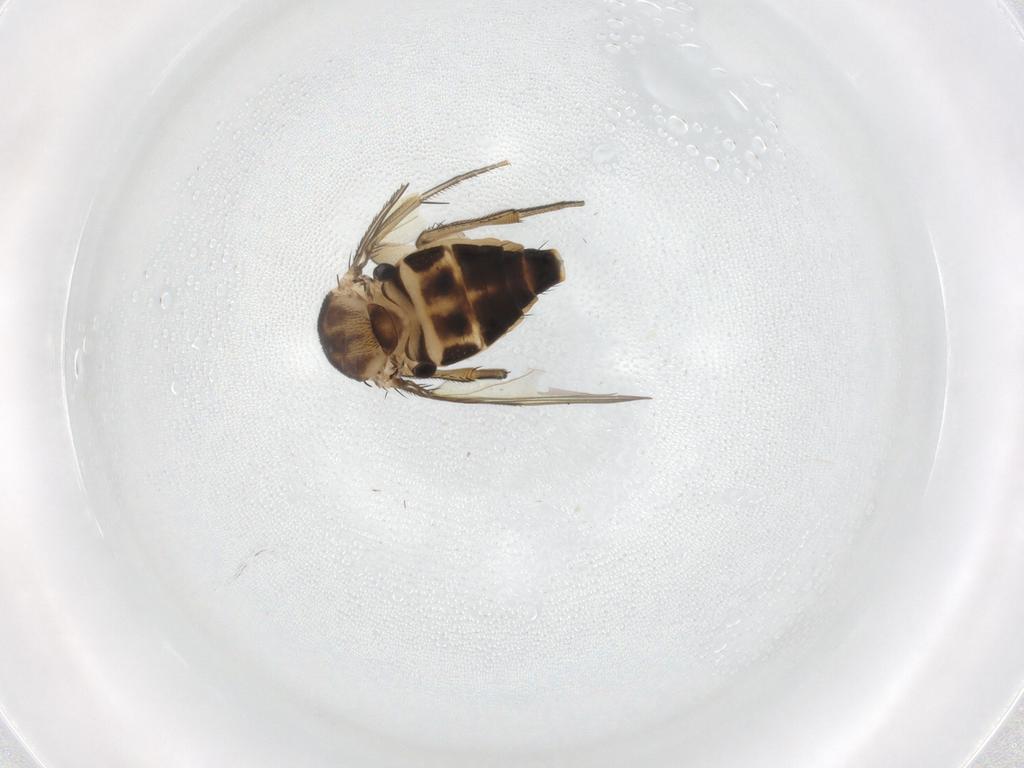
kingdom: Animalia
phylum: Arthropoda
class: Insecta
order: Diptera
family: Phoridae
